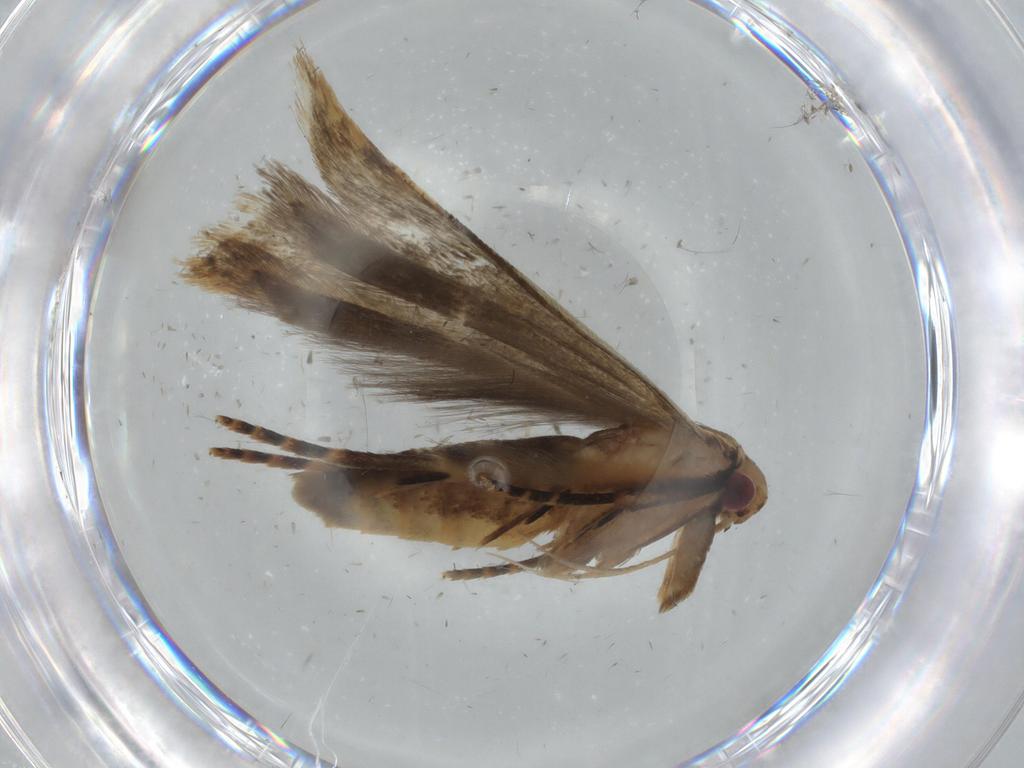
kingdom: Animalia
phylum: Arthropoda
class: Insecta
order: Lepidoptera
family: Gelechiidae
